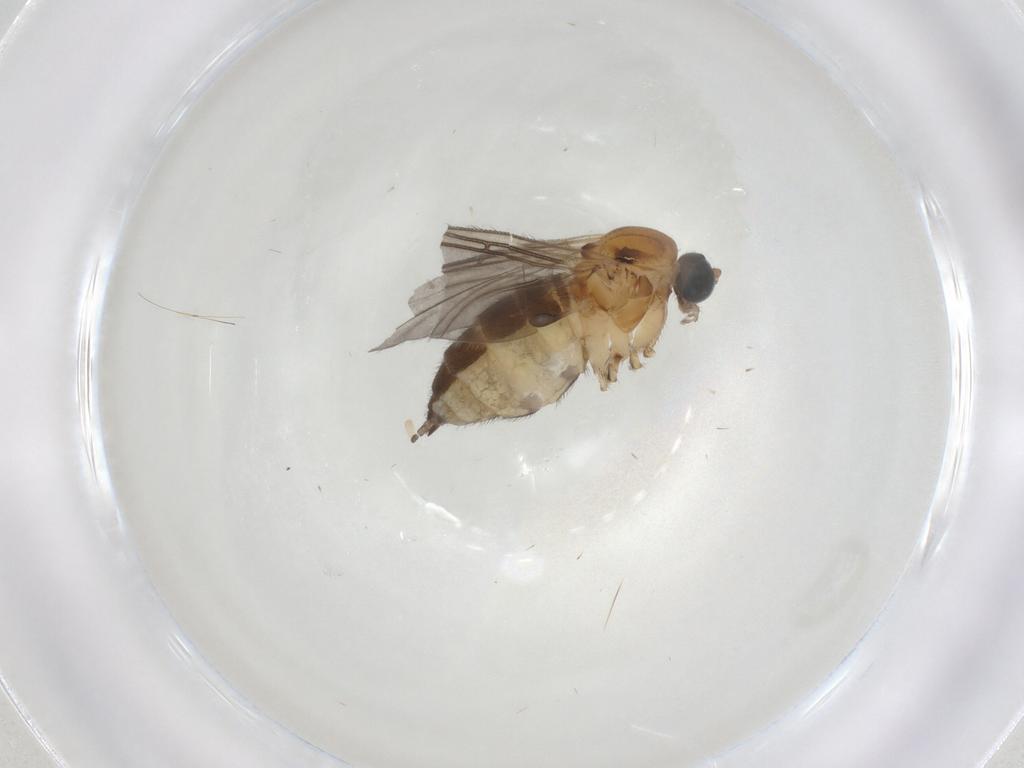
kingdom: Animalia
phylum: Arthropoda
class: Insecta
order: Diptera
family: Sciaridae
